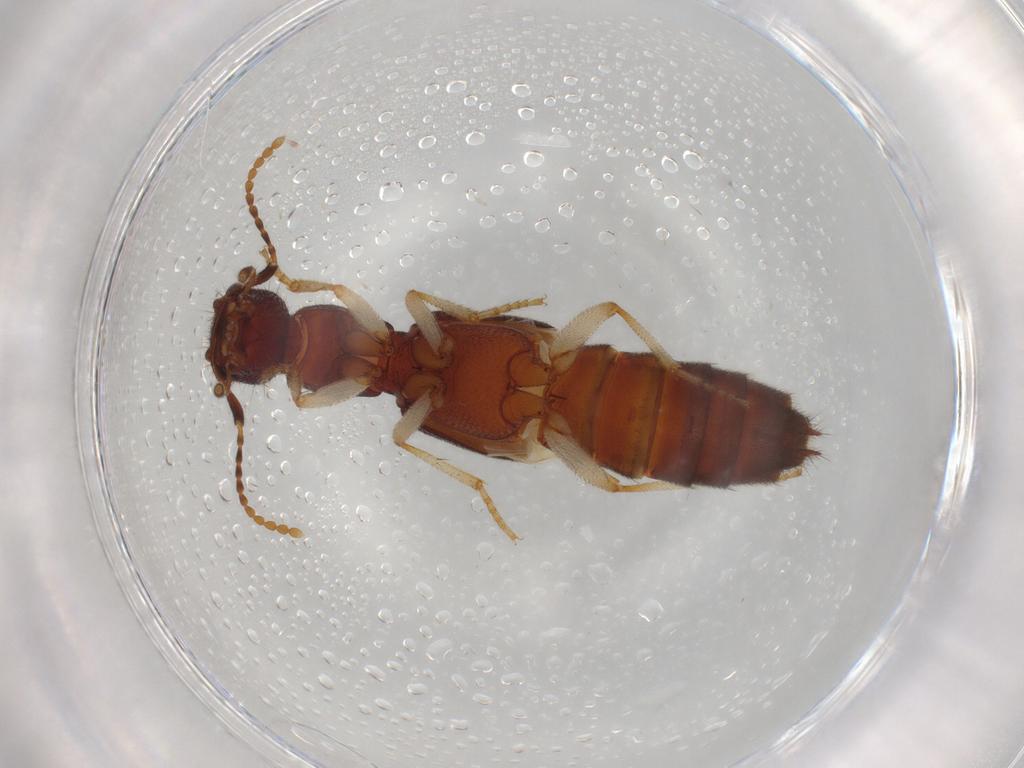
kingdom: Animalia
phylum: Arthropoda
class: Insecta
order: Coleoptera
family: Staphylinidae
